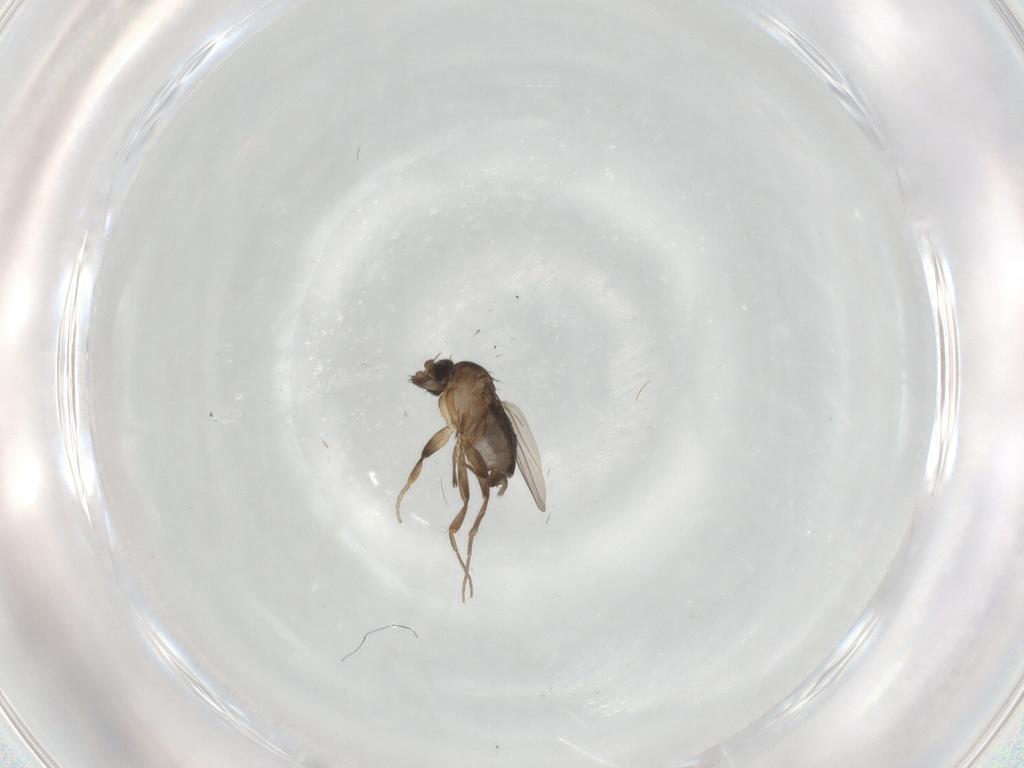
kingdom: Animalia
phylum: Arthropoda
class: Insecta
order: Diptera
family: Phoridae
